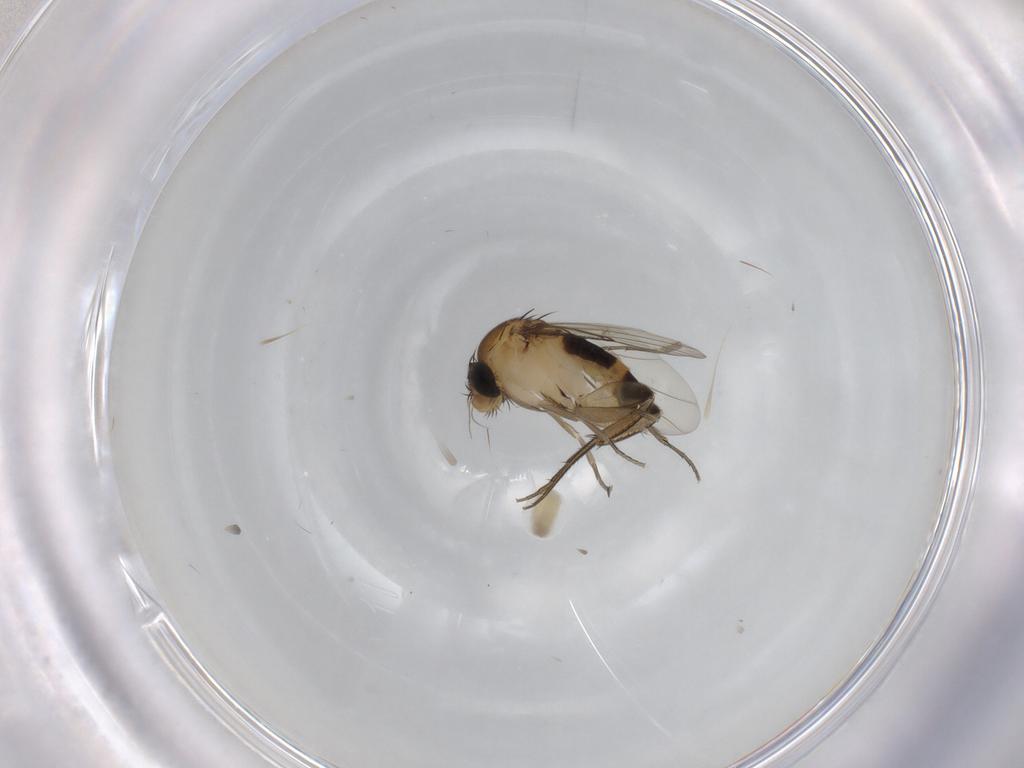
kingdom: Animalia
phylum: Arthropoda
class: Insecta
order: Diptera
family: Phoridae
